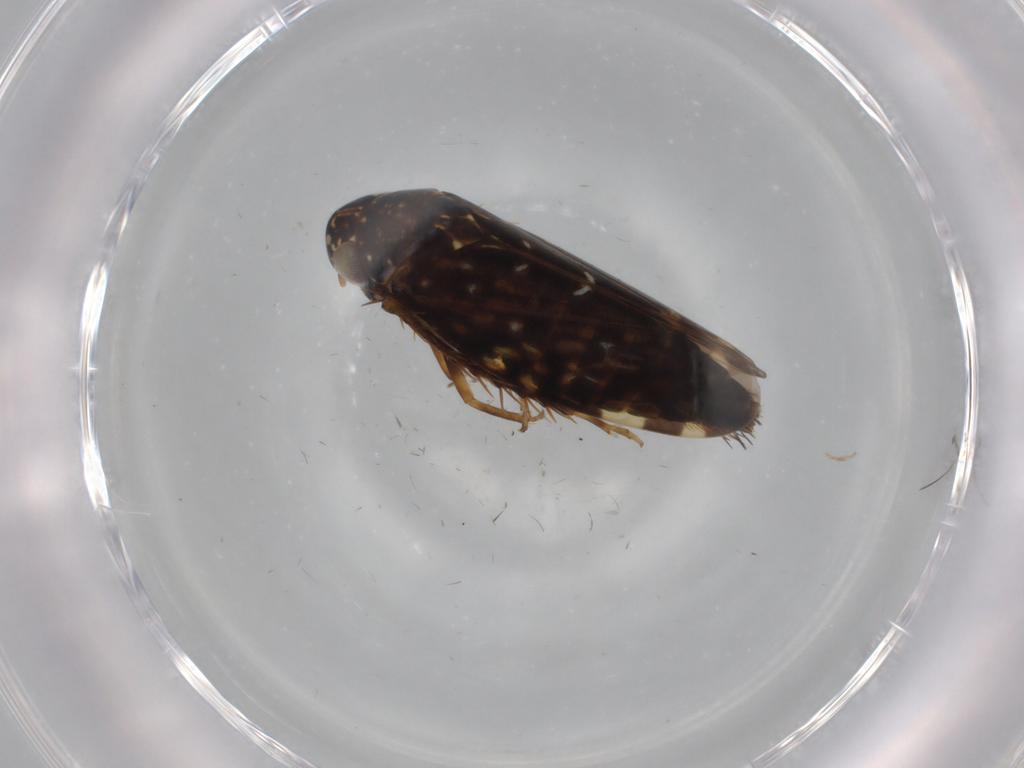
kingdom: Animalia
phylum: Arthropoda
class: Insecta
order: Hemiptera
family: Cicadellidae
